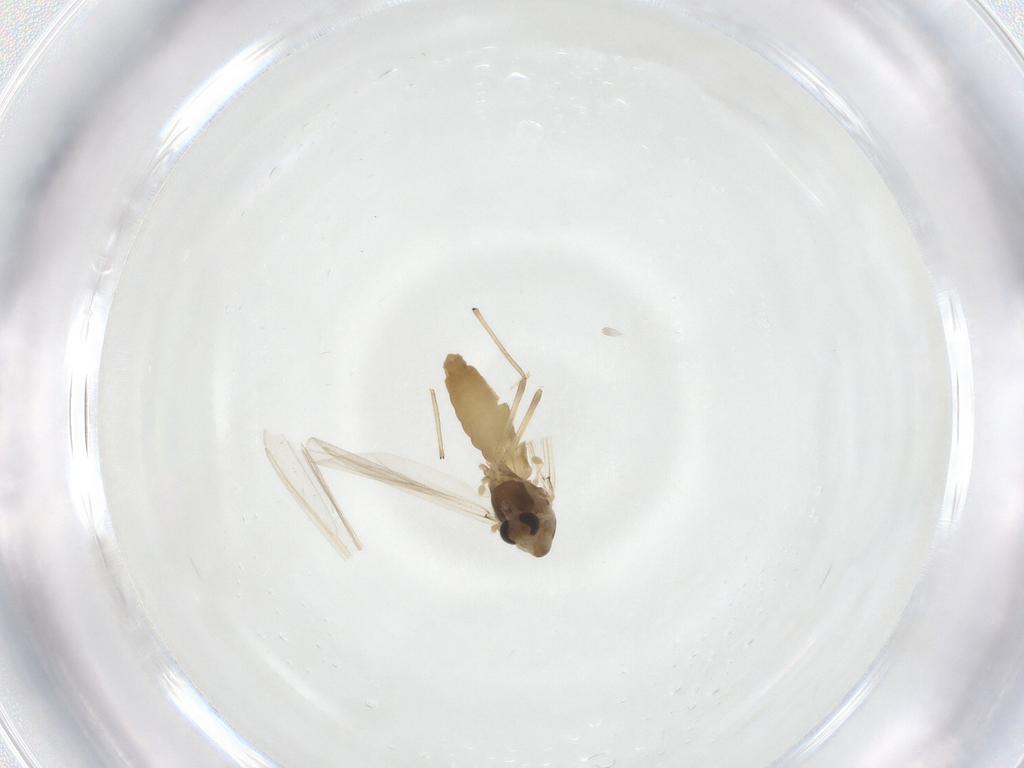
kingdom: Animalia
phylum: Arthropoda
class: Insecta
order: Diptera
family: Chironomidae
